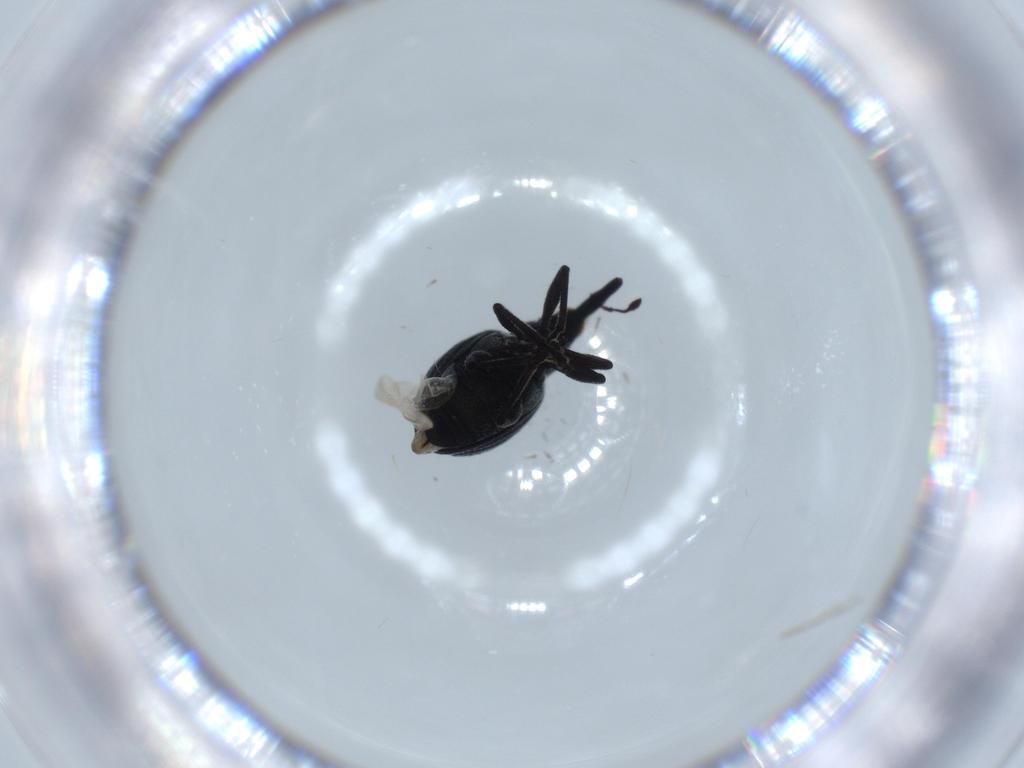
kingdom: Animalia
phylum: Arthropoda
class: Insecta
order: Coleoptera
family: Brentidae
